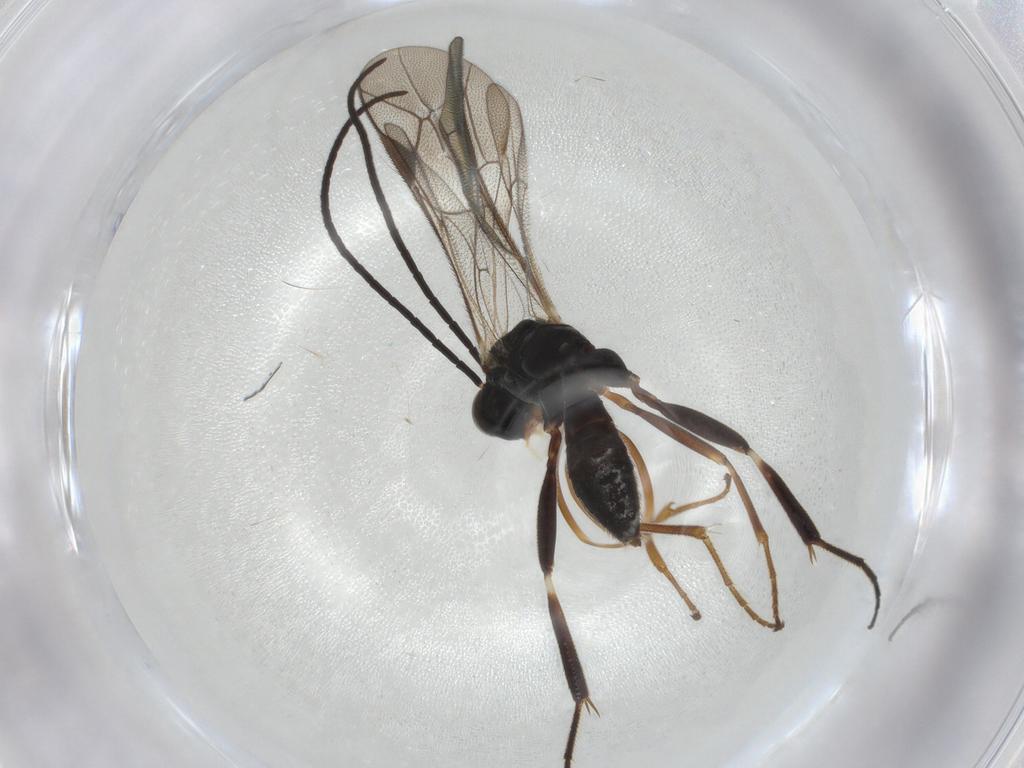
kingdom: Animalia
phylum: Arthropoda
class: Insecta
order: Hymenoptera
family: Ichneumonidae
